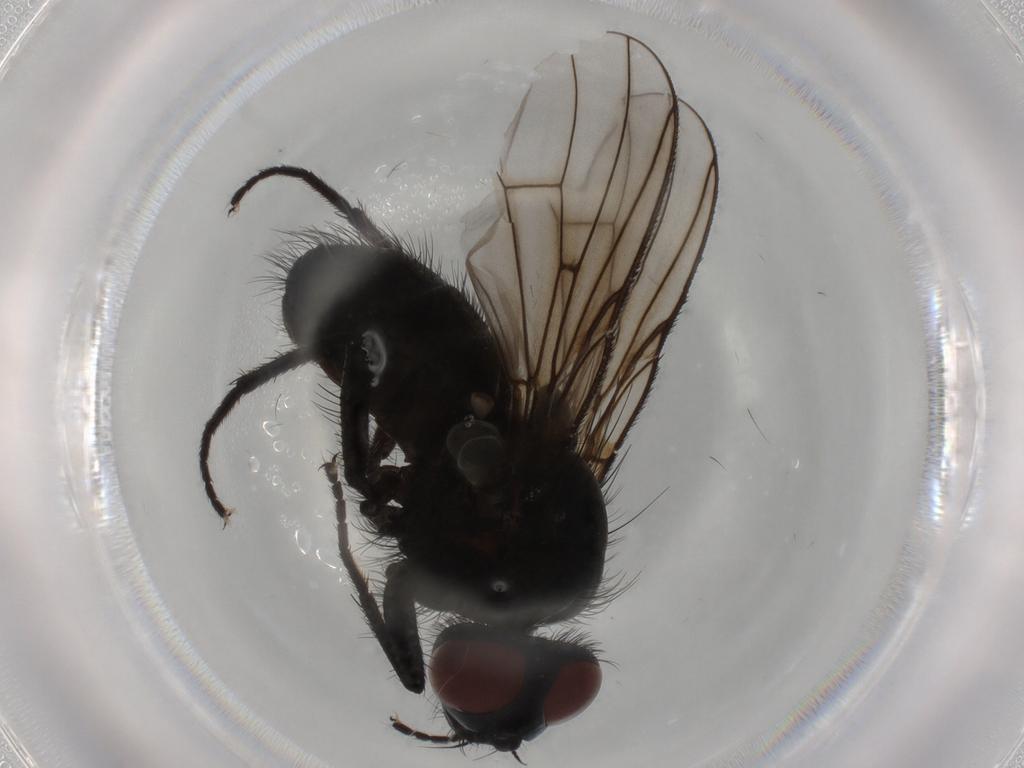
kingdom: Animalia
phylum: Arthropoda
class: Insecta
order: Diptera
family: Muscidae
